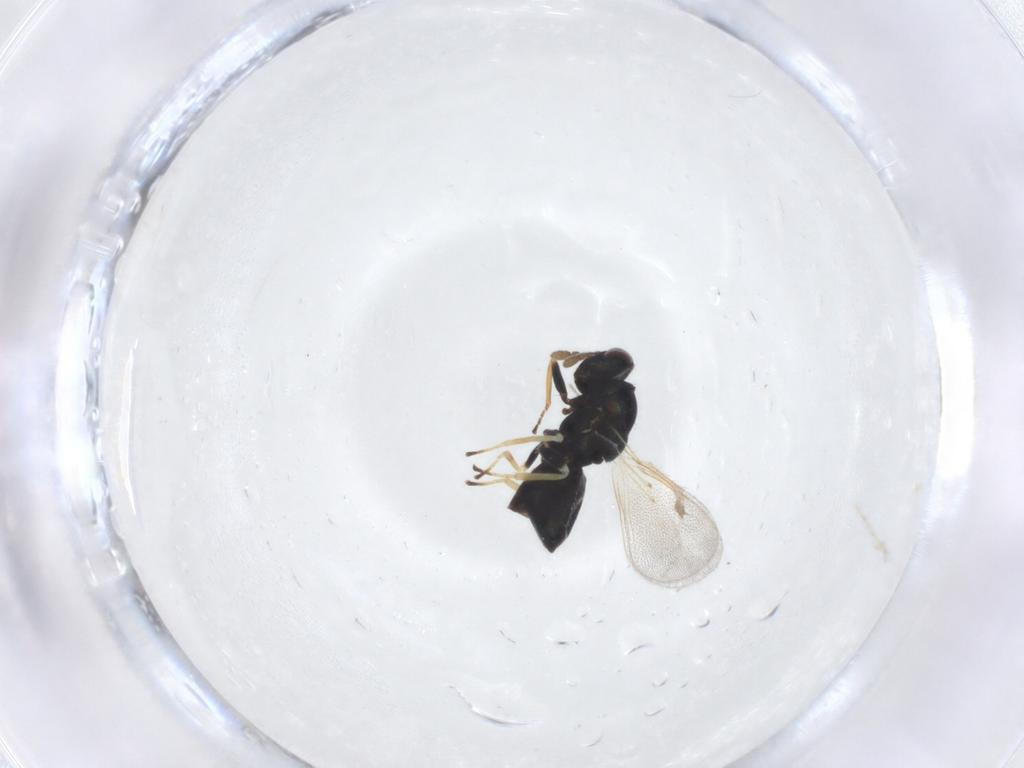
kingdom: Animalia
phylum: Arthropoda
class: Insecta
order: Hymenoptera
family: Eulophidae
